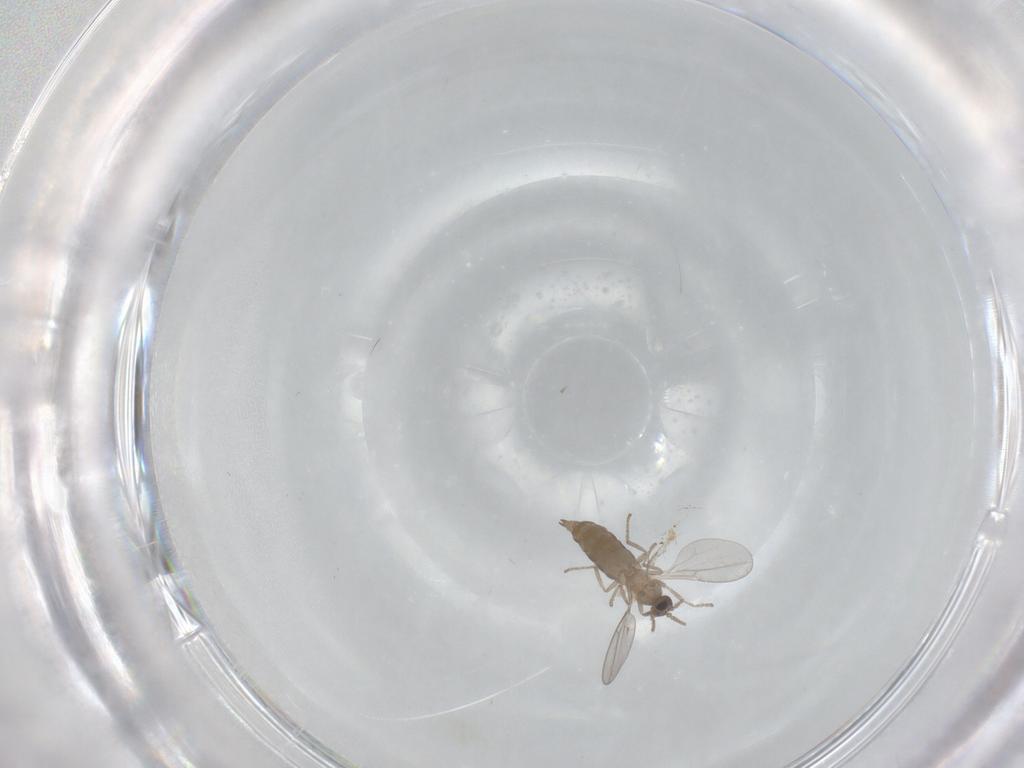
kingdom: Animalia
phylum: Arthropoda
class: Insecta
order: Diptera
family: Cecidomyiidae
